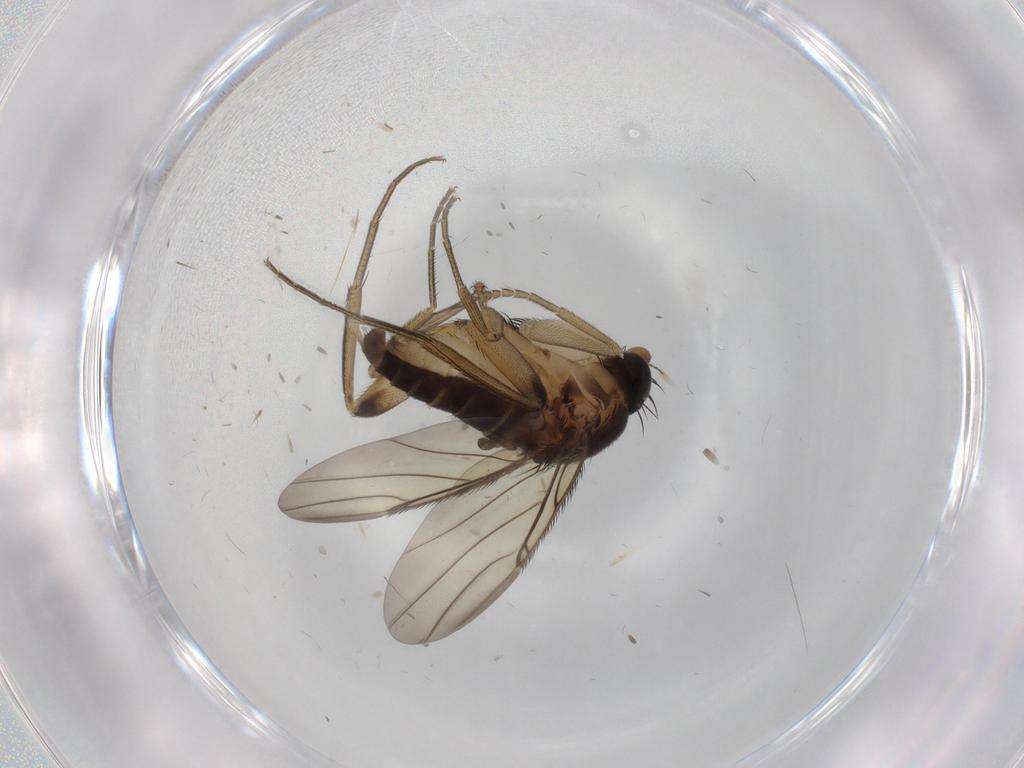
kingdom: Animalia
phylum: Arthropoda
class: Insecta
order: Diptera
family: Phoridae
